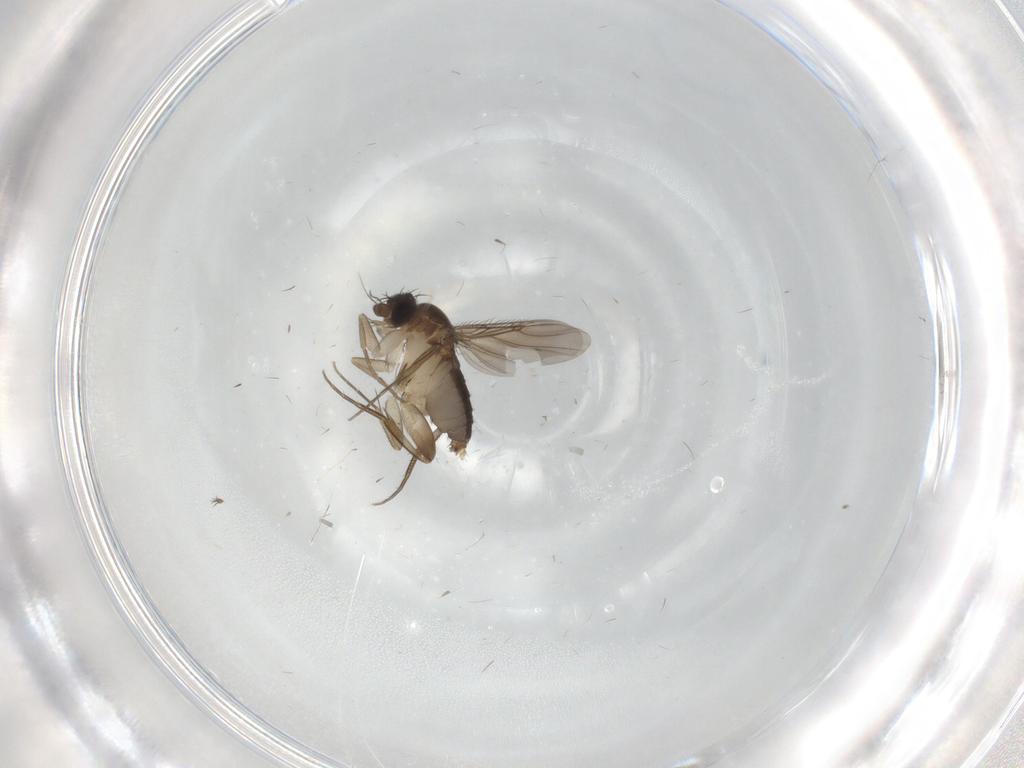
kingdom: Animalia
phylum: Arthropoda
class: Insecta
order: Diptera
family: Phoridae
